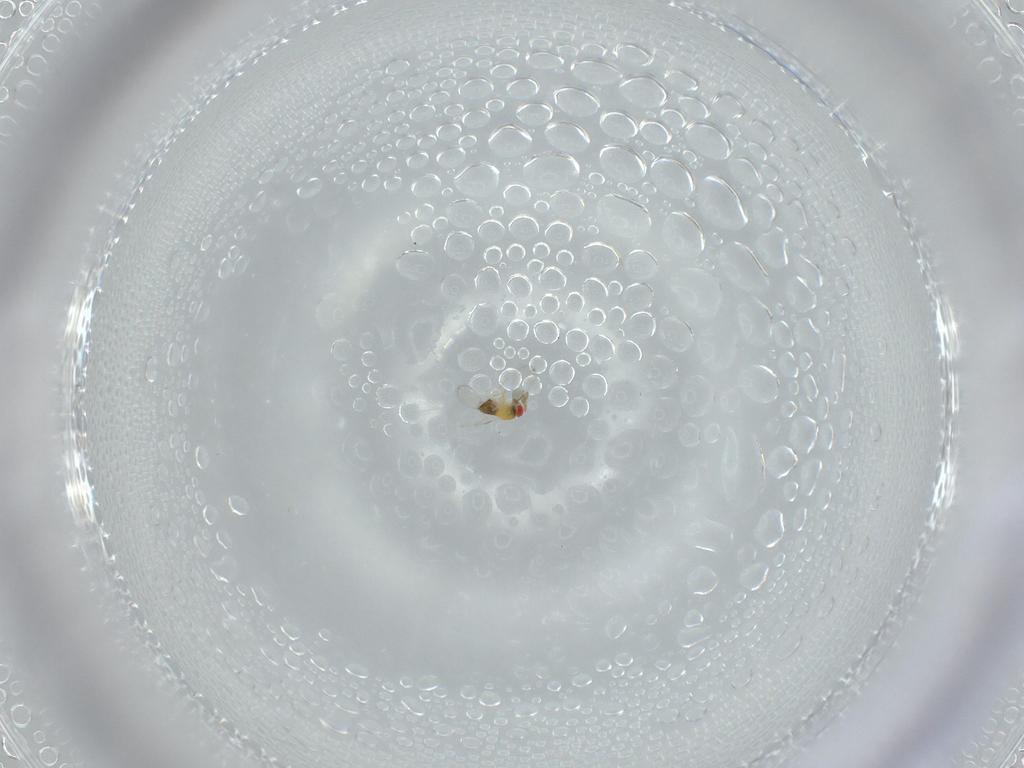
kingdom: Animalia
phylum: Arthropoda
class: Insecta
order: Hymenoptera
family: Trichogrammatidae
